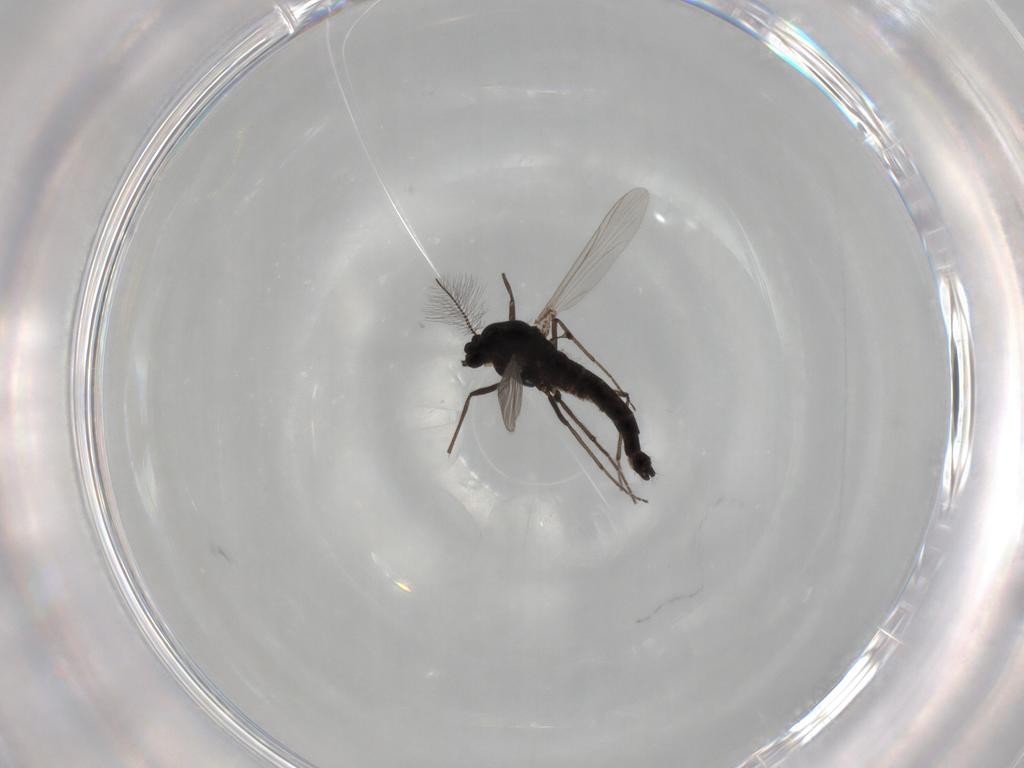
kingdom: Animalia
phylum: Arthropoda
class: Insecta
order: Diptera
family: Chironomidae
